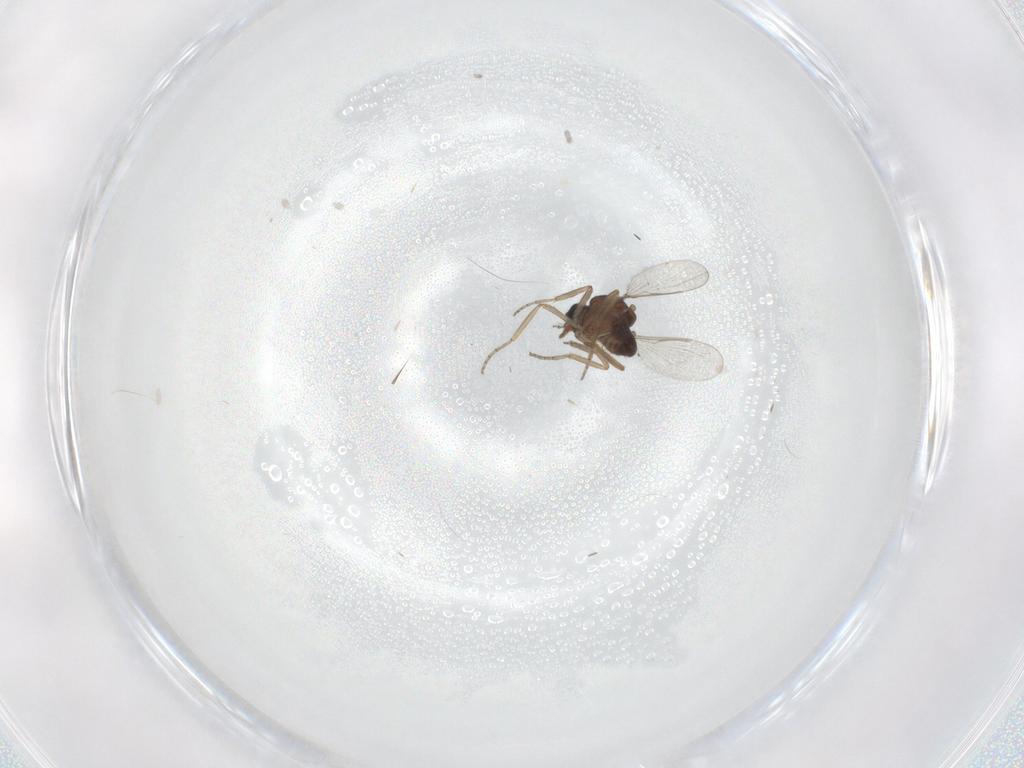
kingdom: Animalia
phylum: Arthropoda
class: Insecta
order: Diptera
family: Ceratopogonidae
